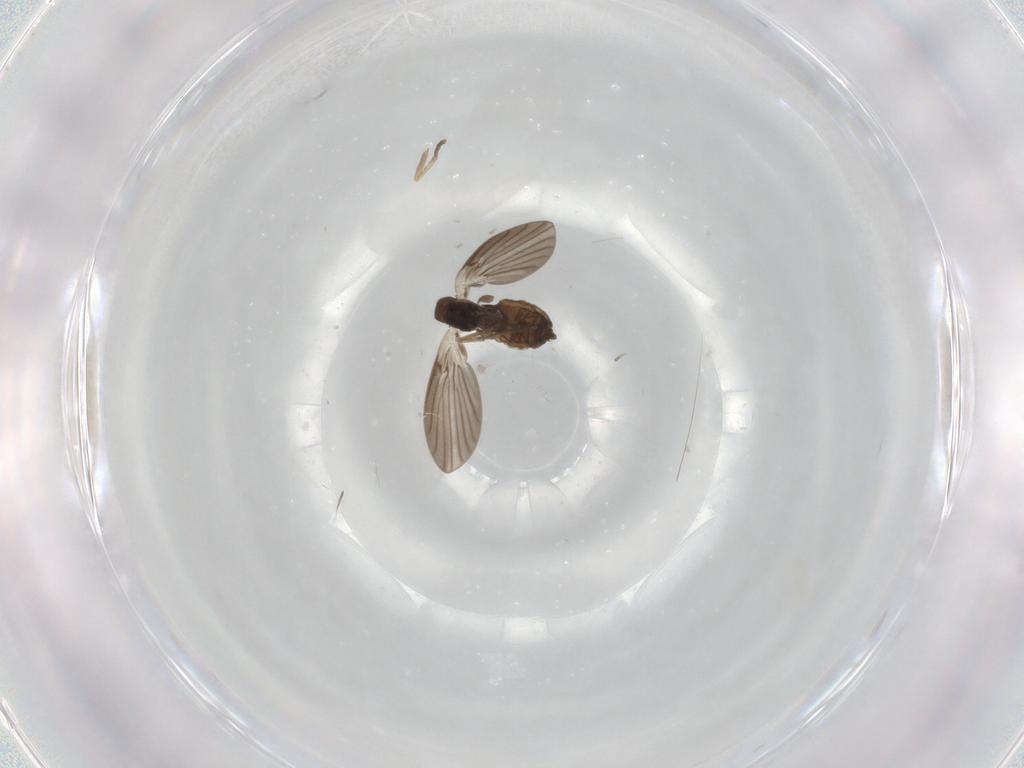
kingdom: Animalia
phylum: Arthropoda
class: Insecta
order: Diptera
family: Psychodidae
